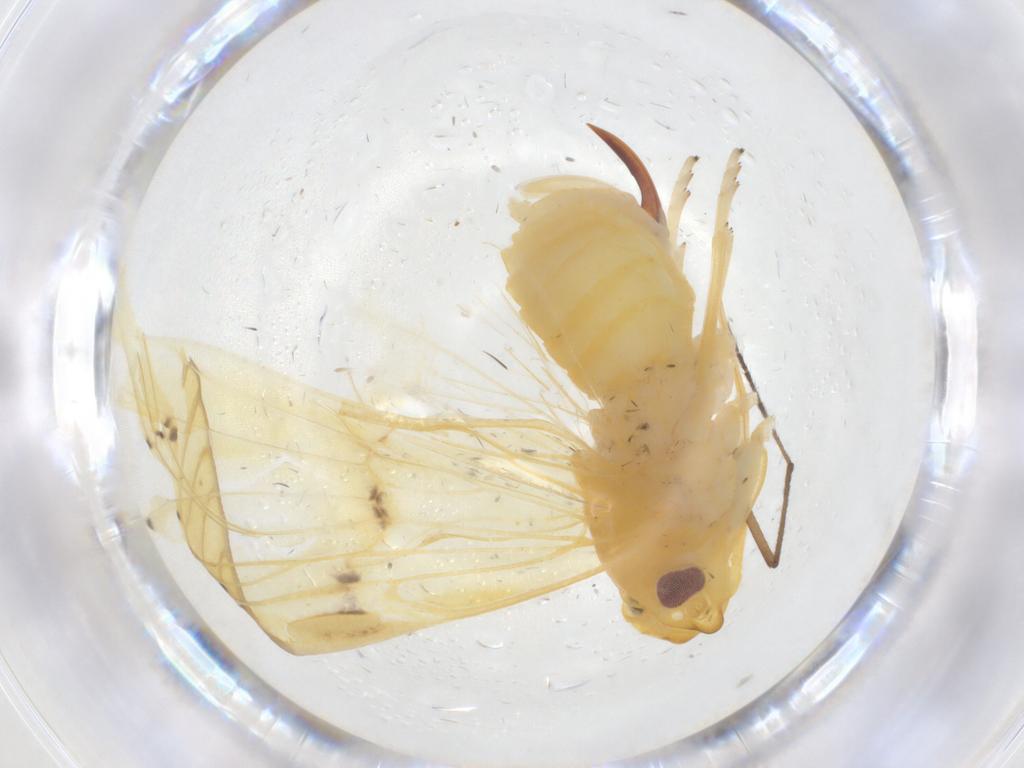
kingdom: Animalia
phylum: Arthropoda
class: Insecta
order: Hemiptera
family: Cixiidae
